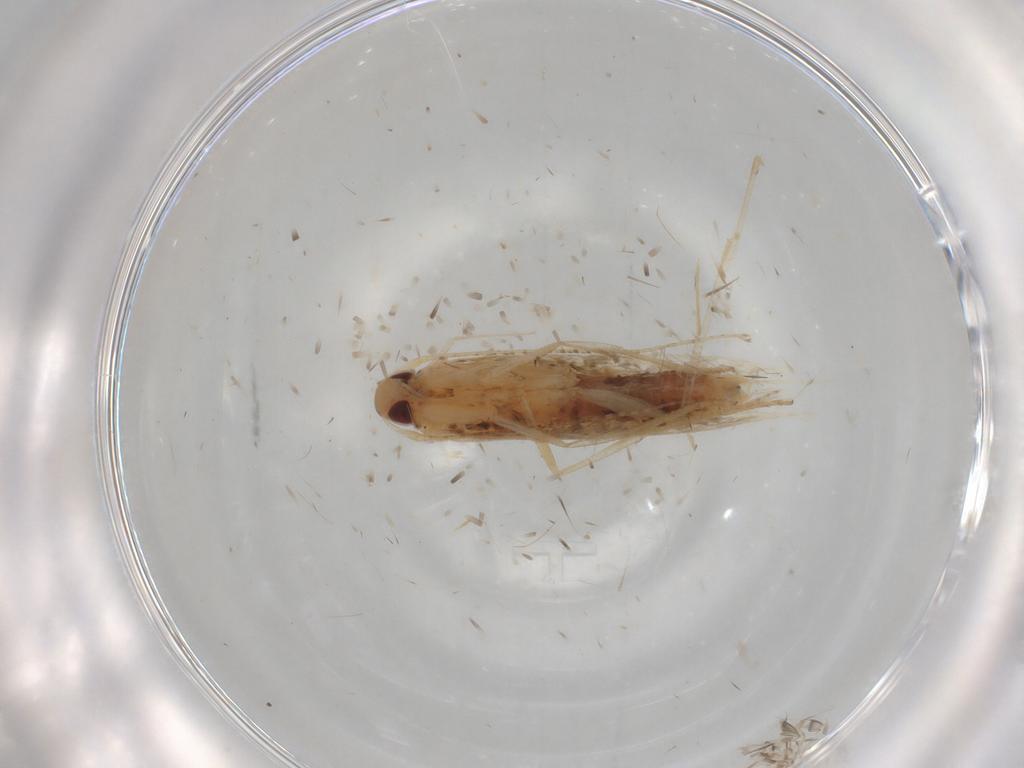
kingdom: Animalia
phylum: Arthropoda
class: Insecta
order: Lepidoptera
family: Cosmopterigidae
